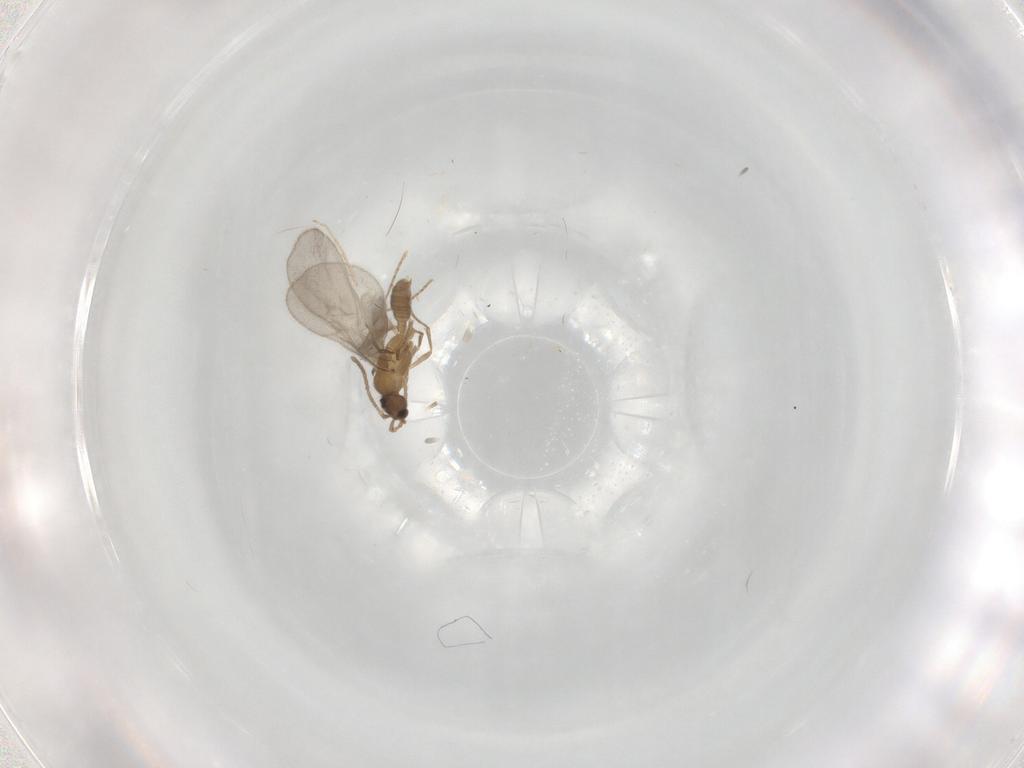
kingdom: Animalia
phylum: Arthropoda
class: Insecta
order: Hymenoptera
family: Formicidae
